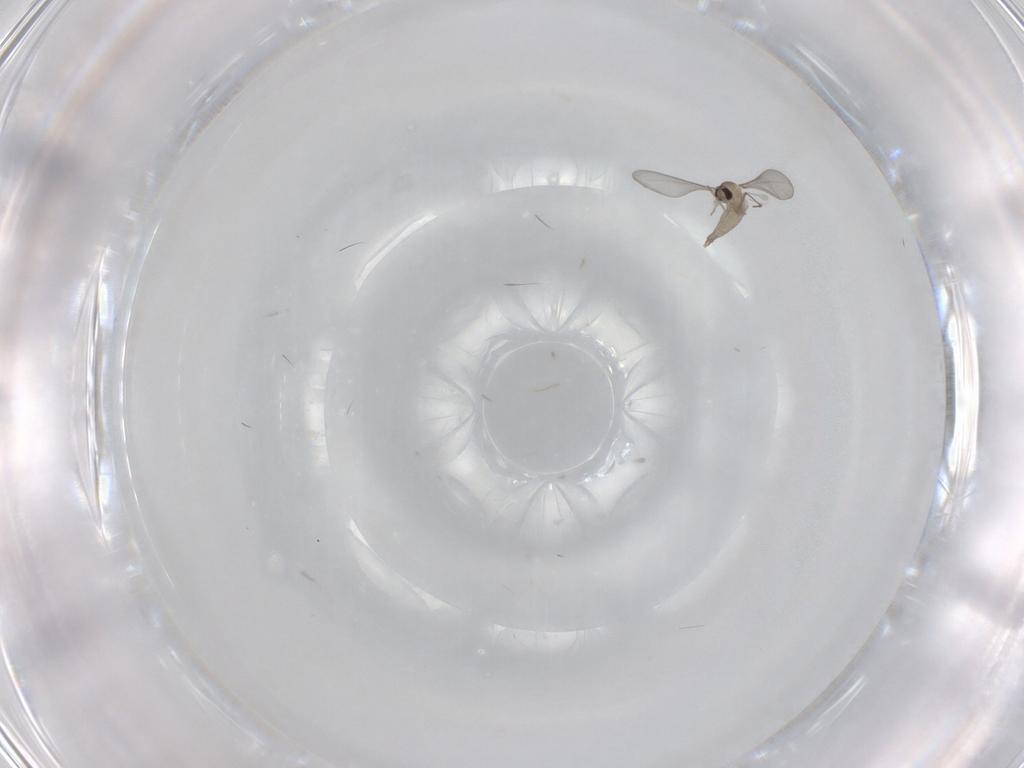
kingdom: Animalia
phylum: Arthropoda
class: Insecta
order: Diptera
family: Cecidomyiidae
